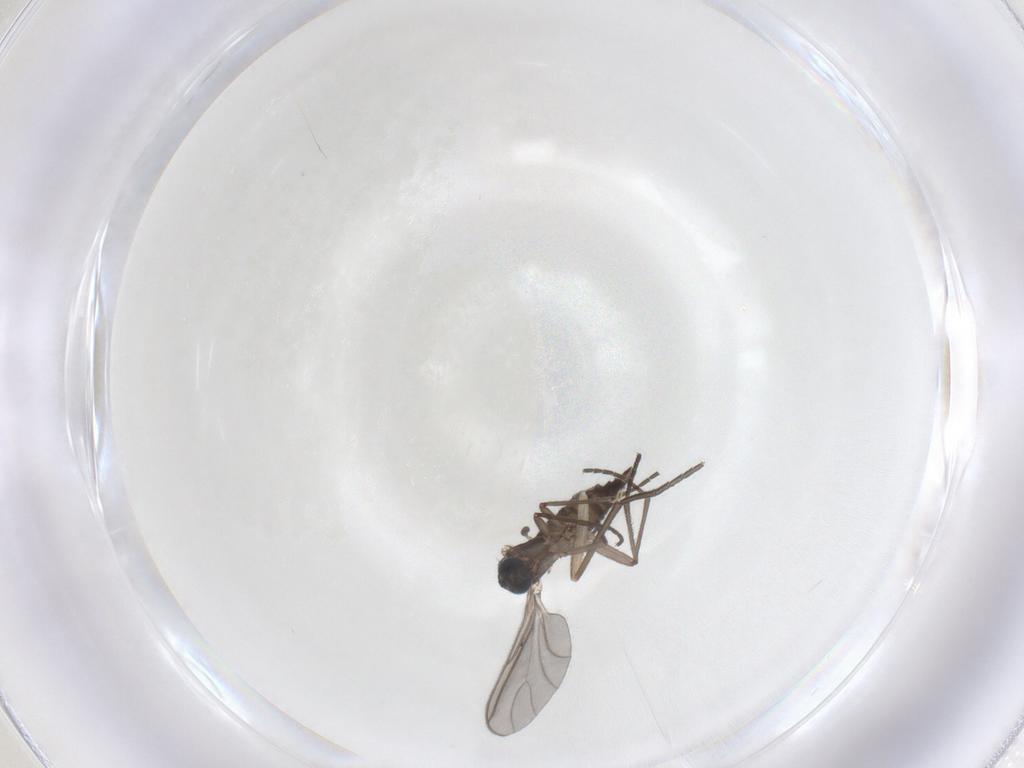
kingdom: Animalia
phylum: Arthropoda
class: Insecta
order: Diptera
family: Sciaridae
